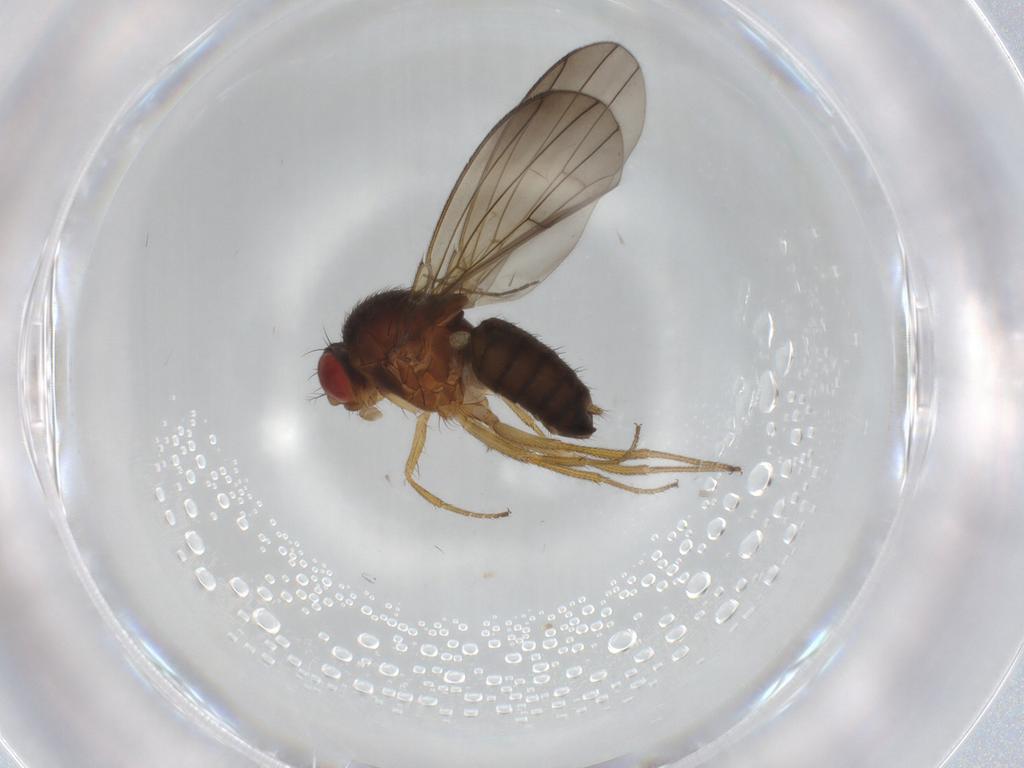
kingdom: Animalia
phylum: Arthropoda
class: Insecta
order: Diptera
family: Drosophilidae
